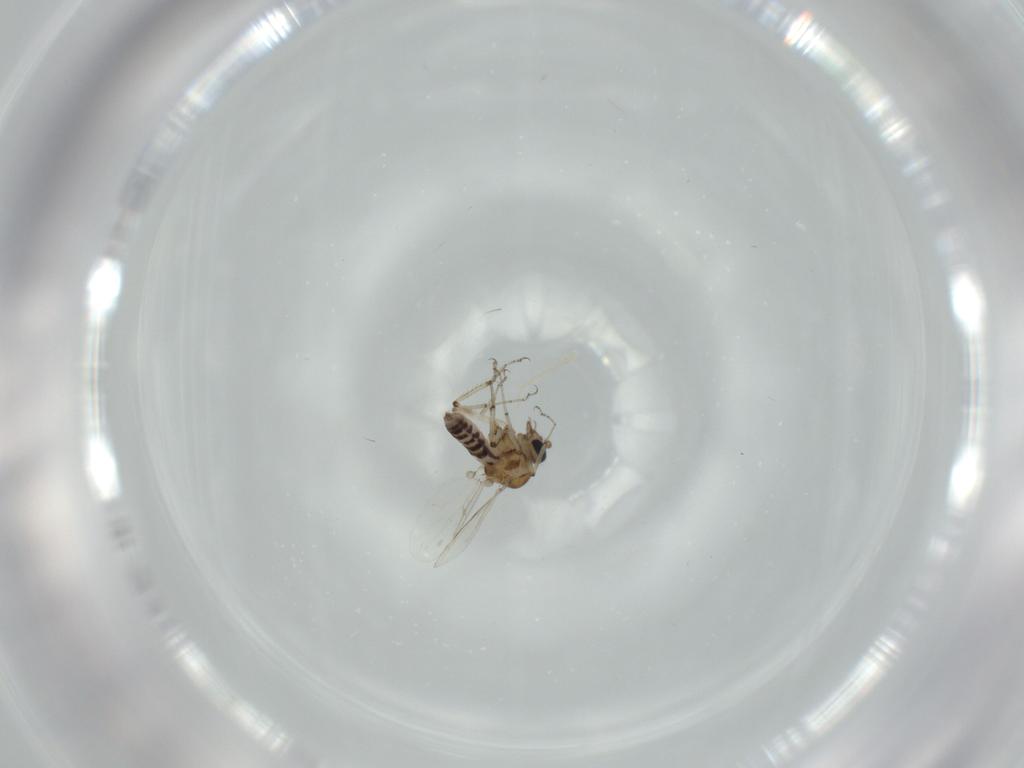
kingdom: Animalia
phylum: Arthropoda
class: Insecta
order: Diptera
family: Ceratopogonidae
